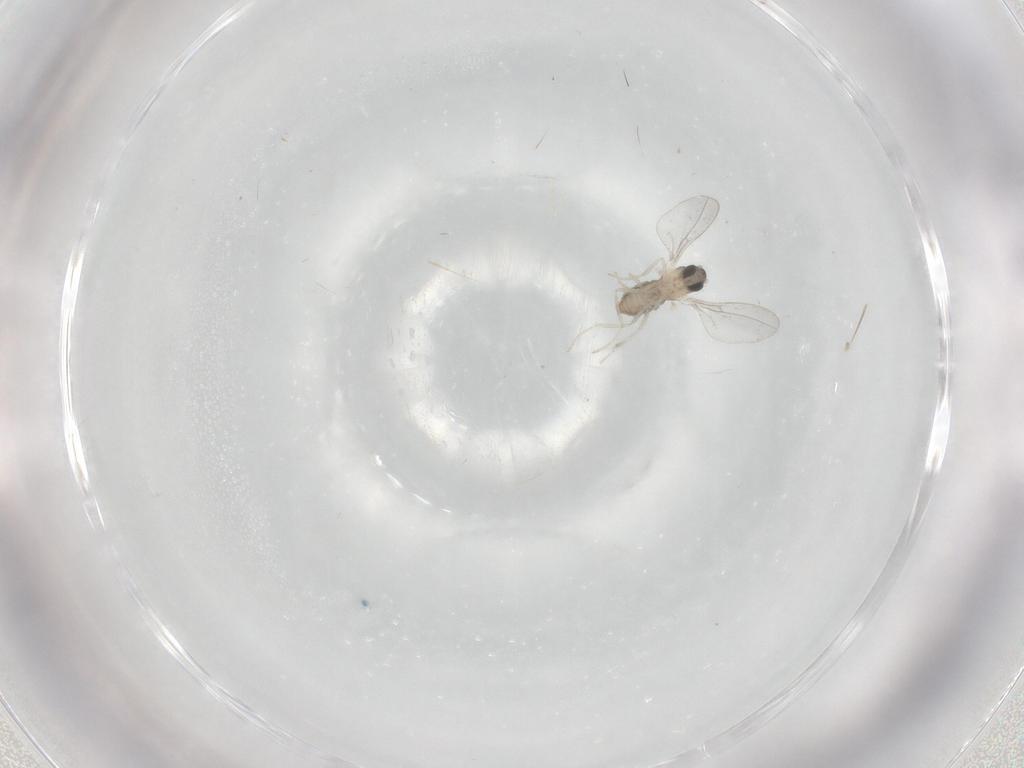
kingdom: Animalia
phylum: Arthropoda
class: Insecta
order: Diptera
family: Cecidomyiidae
